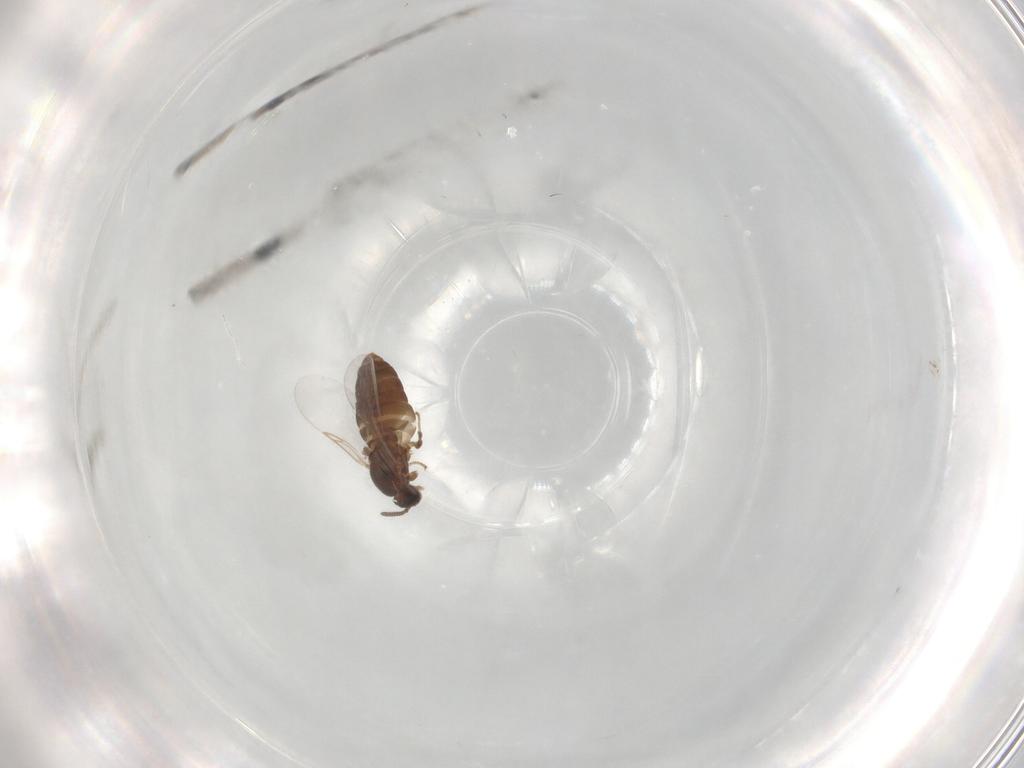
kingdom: Animalia
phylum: Arthropoda
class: Insecta
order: Diptera
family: Scatopsidae
